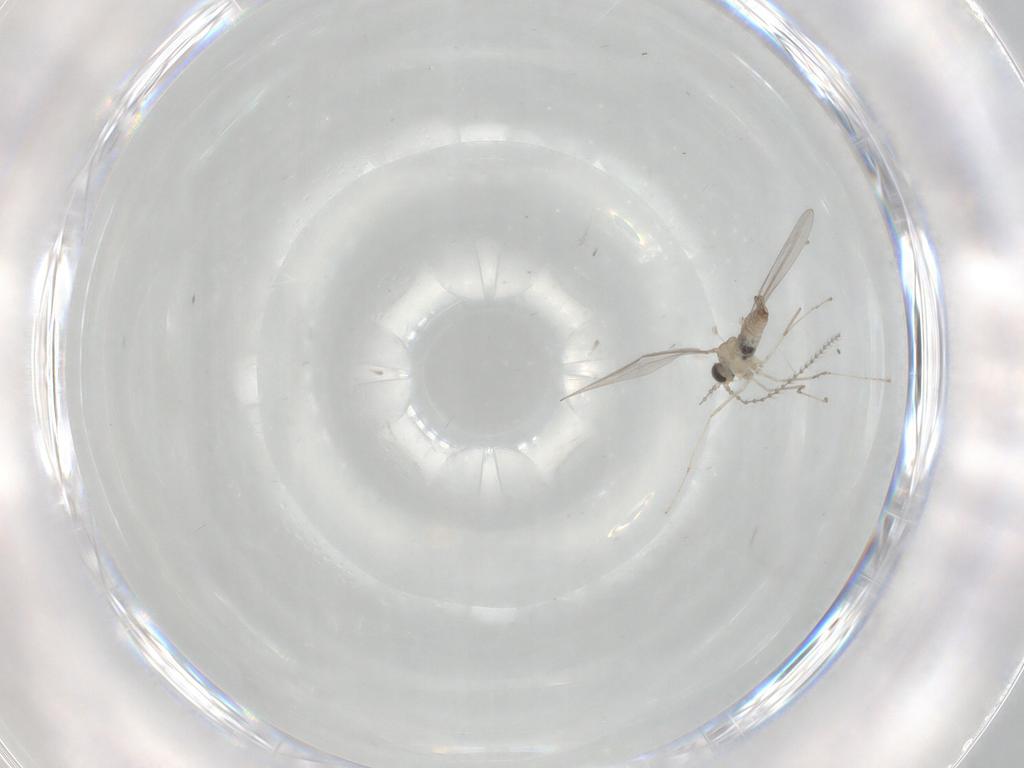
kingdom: Animalia
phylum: Arthropoda
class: Insecta
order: Diptera
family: Cecidomyiidae
